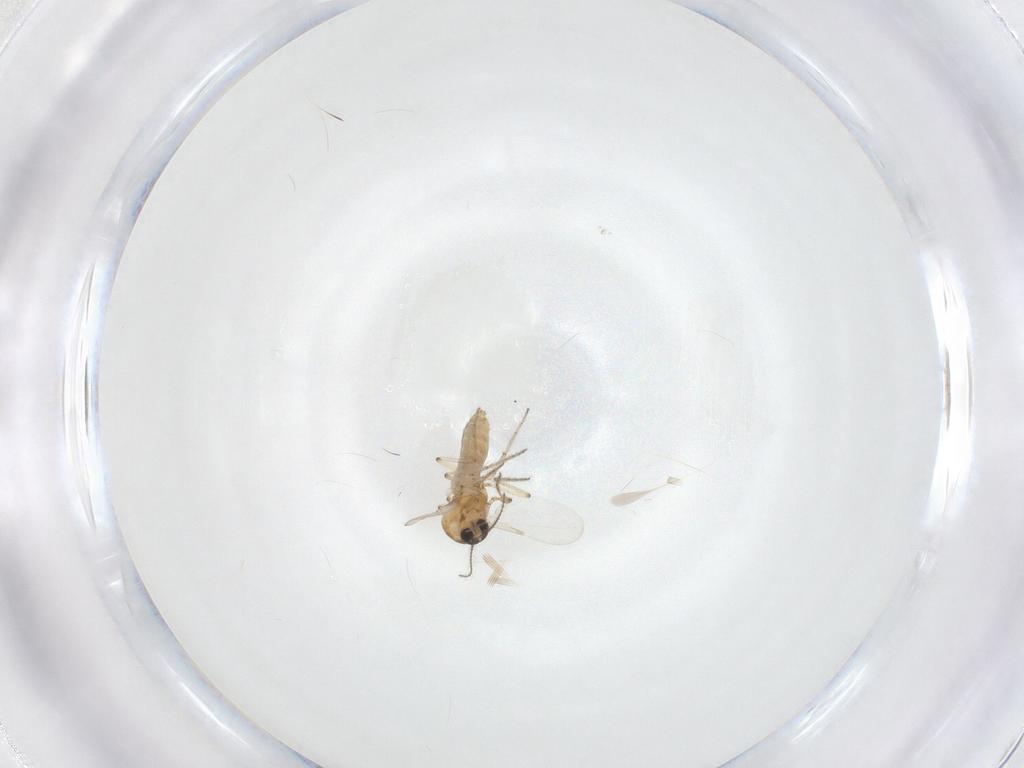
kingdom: Animalia
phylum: Arthropoda
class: Insecta
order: Diptera
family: Ceratopogonidae
